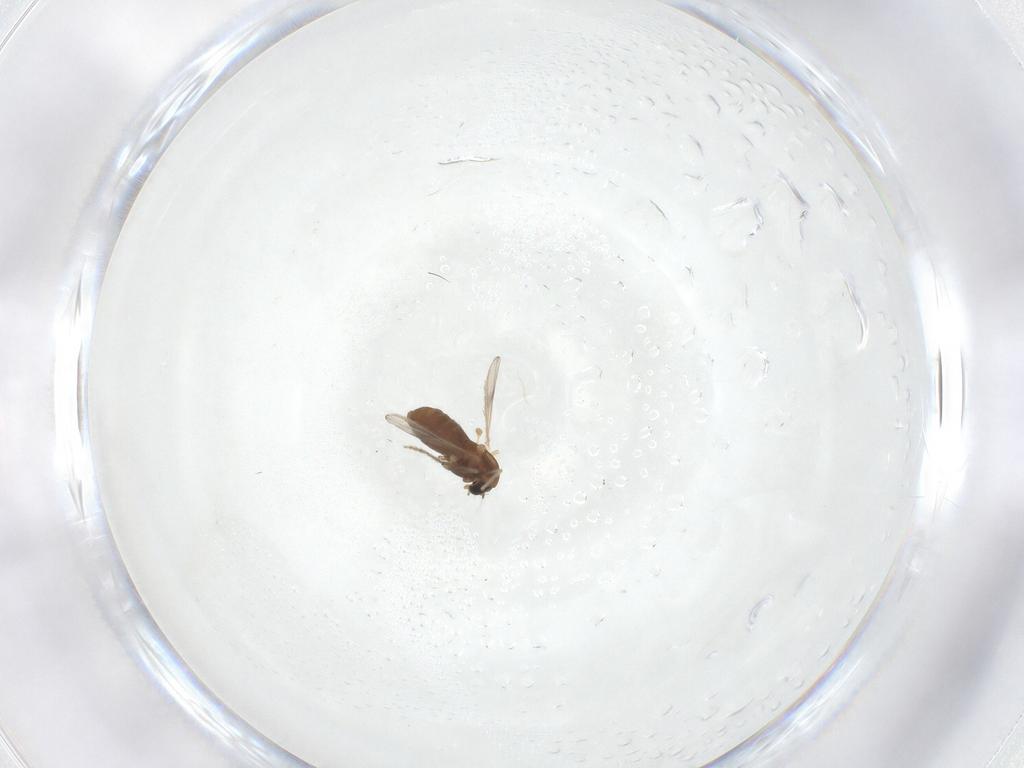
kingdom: Animalia
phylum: Arthropoda
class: Insecta
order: Diptera
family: Chironomidae
